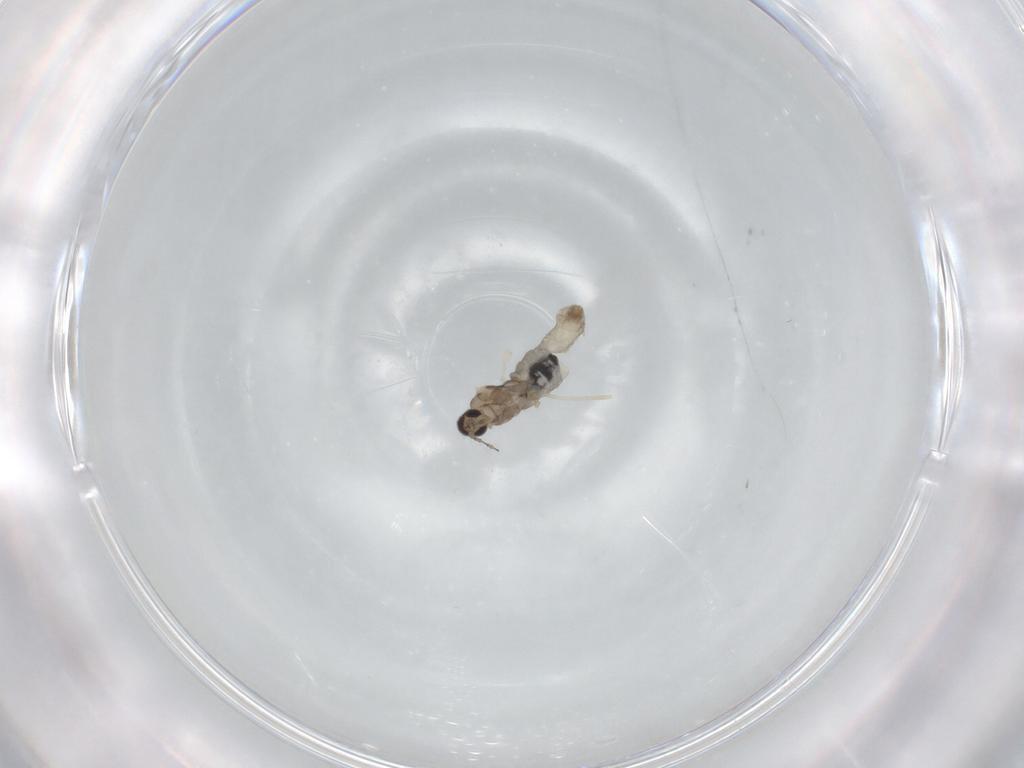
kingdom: Animalia
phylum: Arthropoda
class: Insecta
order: Diptera
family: Cecidomyiidae
